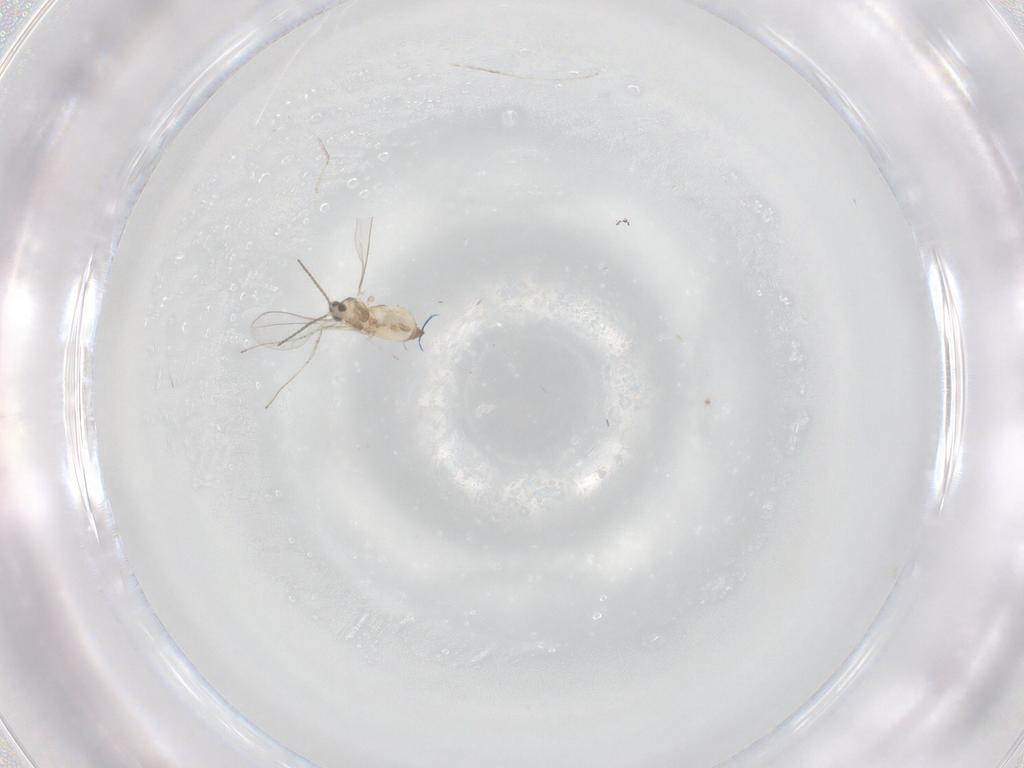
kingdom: Animalia
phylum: Arthropoda
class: Insecta
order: Diptera
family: Cecidomyiidae
